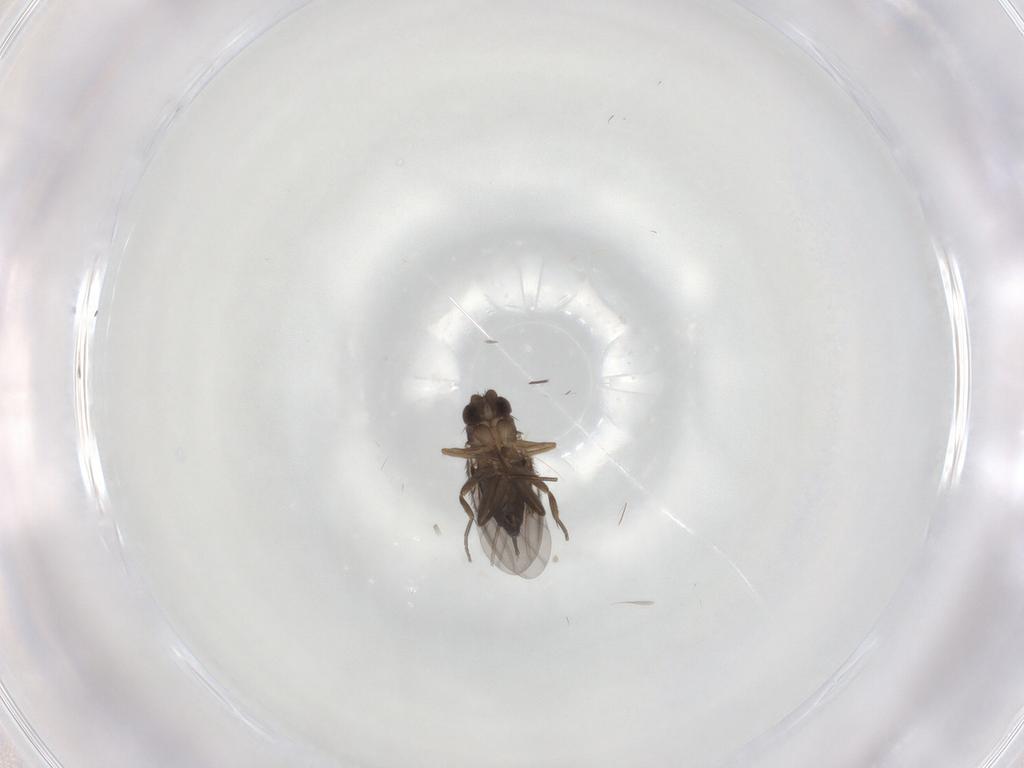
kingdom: Animalia
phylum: Arthropoda
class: Insecta
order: Diptera
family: Phoridae
